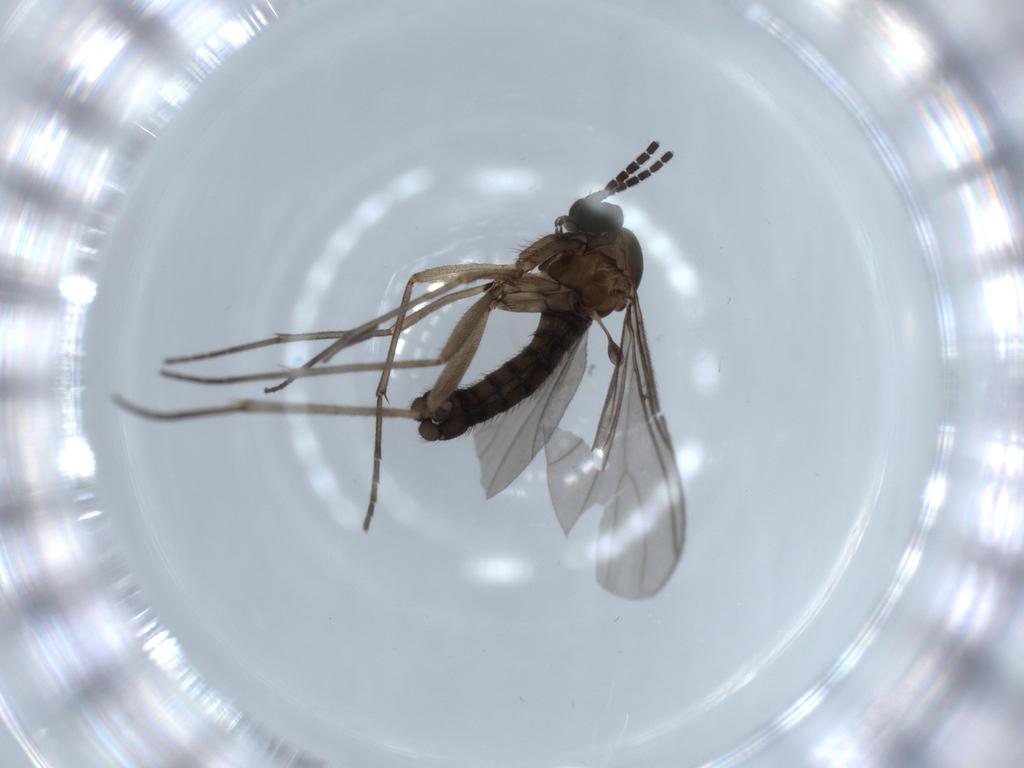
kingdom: Animalia
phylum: Arthropoda
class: Insecta
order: Diptera
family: Sciaridae
